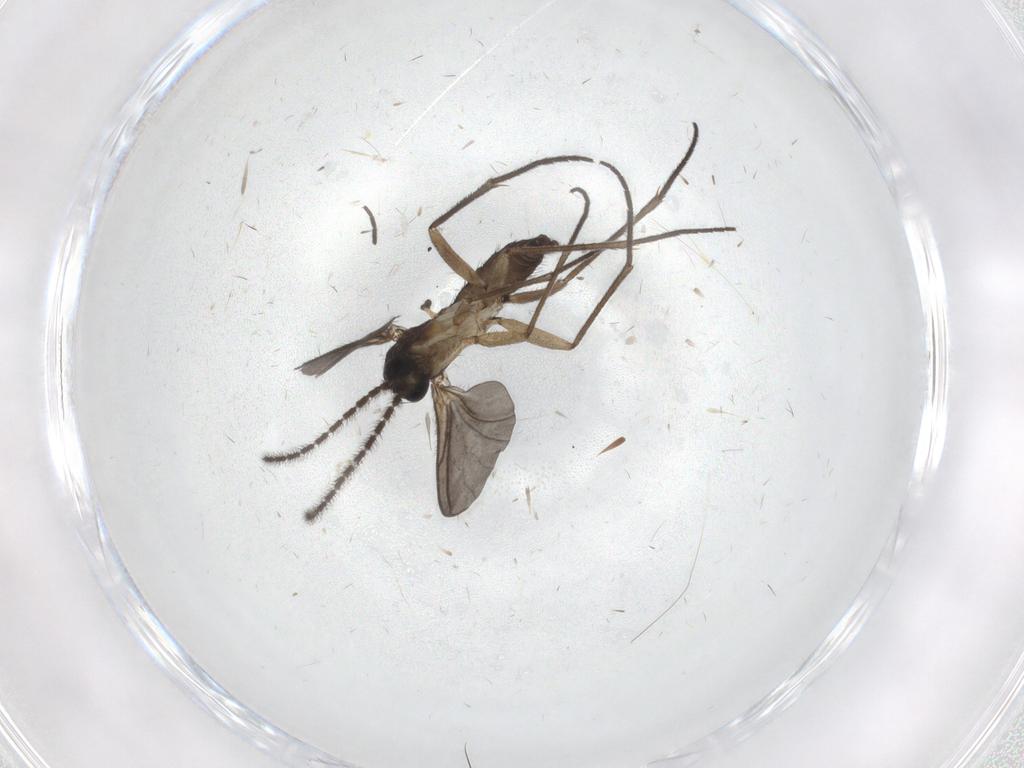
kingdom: Animalia
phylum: Arthropoda
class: Insecta
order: Diptera
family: Cecidomyiidae
